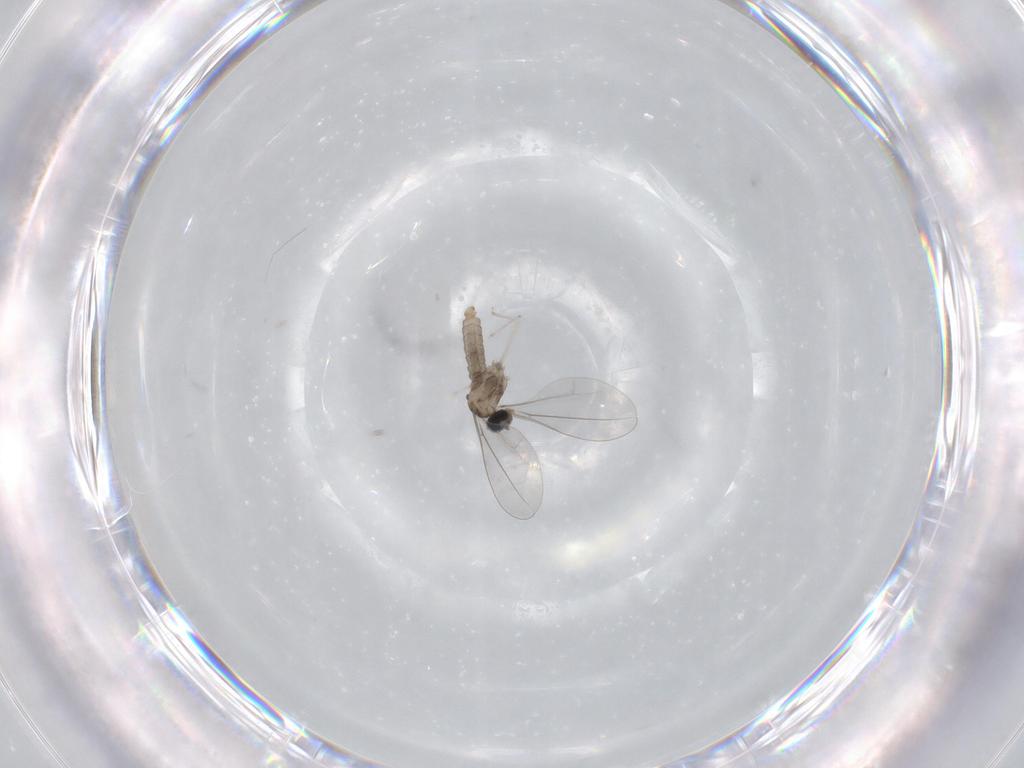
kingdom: Animalia
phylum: Arthropoda
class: Insecta
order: Diptera
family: Cecidomyiidae
